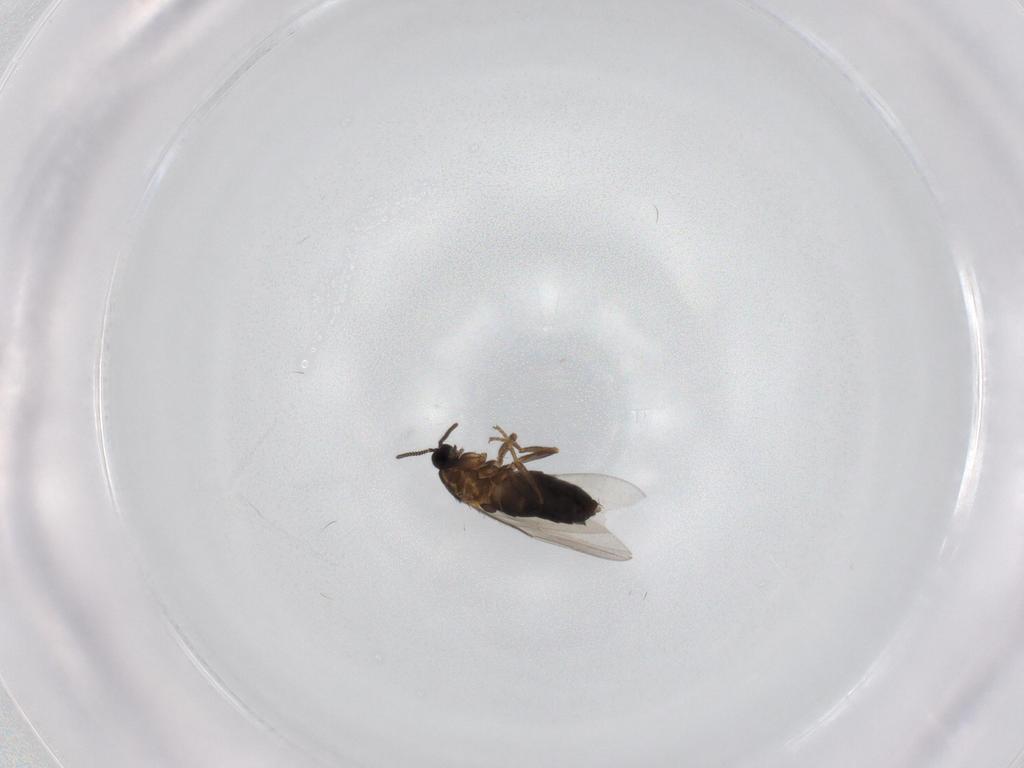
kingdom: Animalia
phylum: Arthropoda
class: Insecta
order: Diptera
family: Scatopsidae
